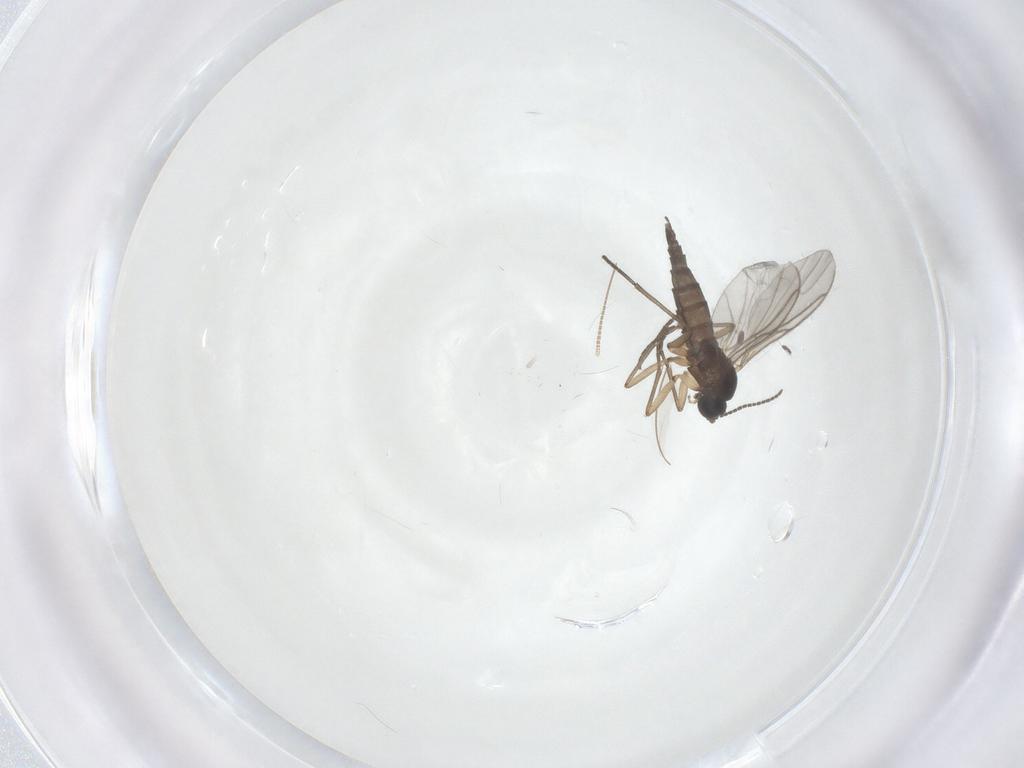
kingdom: Animalia
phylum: Arthropoda
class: Insecta
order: Diptera
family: Sciaridae
